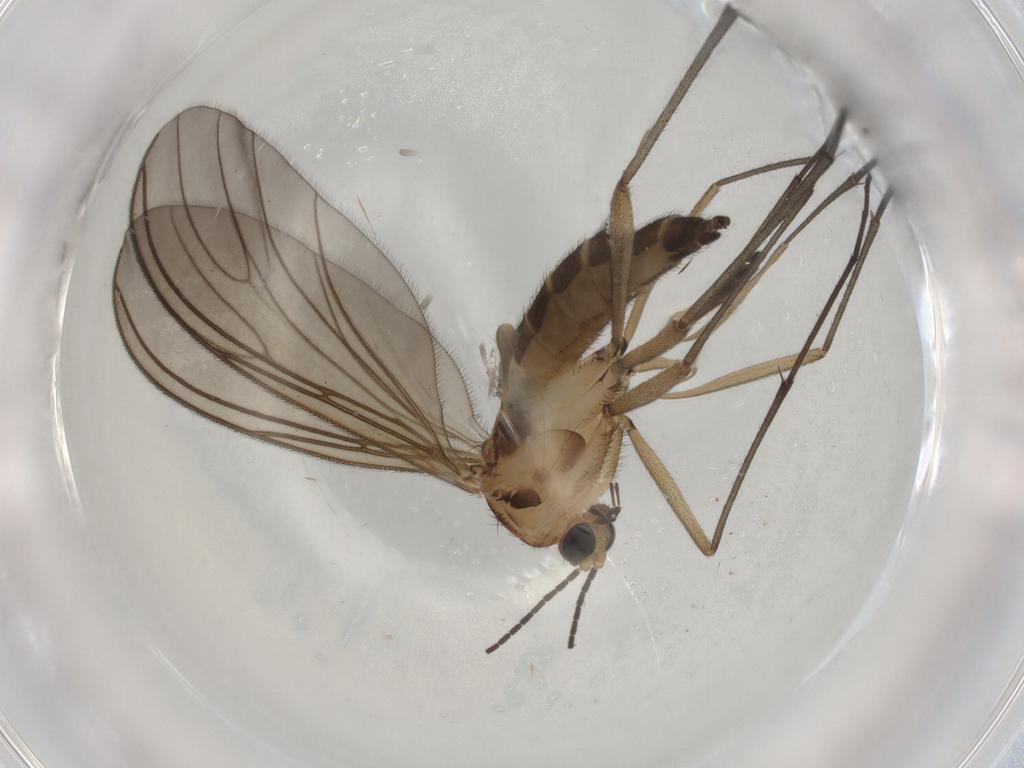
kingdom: Animalia
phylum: Arthropoda
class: Insecta
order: Diptera
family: Sciaridae
